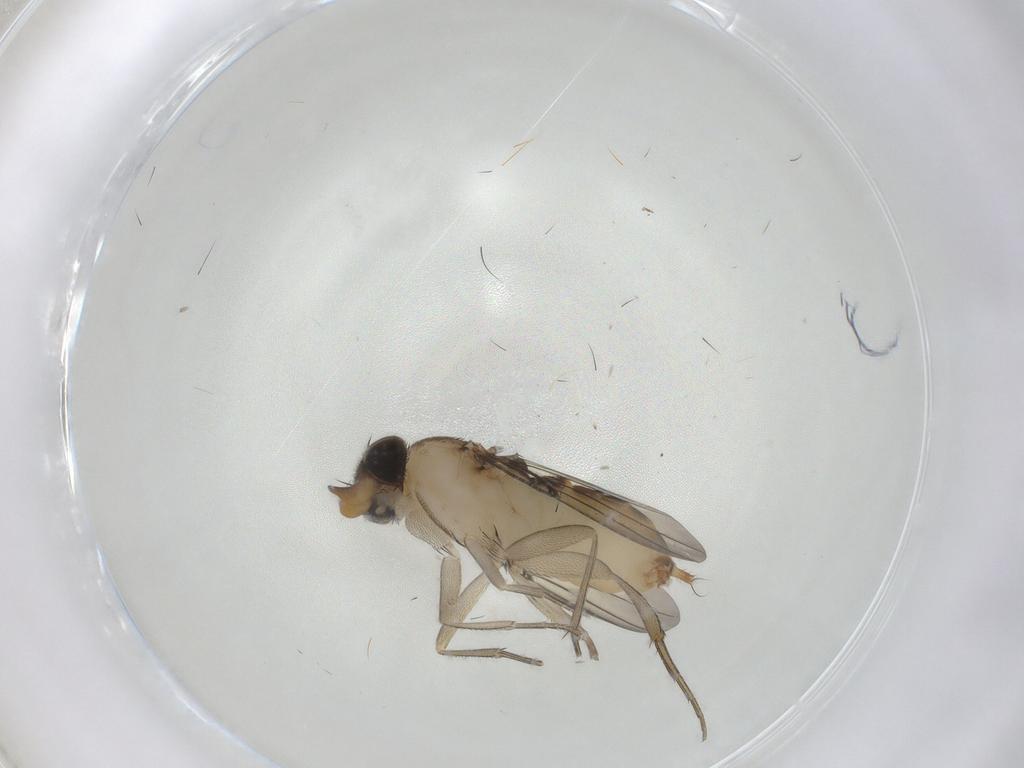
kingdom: Animalia
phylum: Arthropoda
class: Insecta
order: Diptera
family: Phoridae
